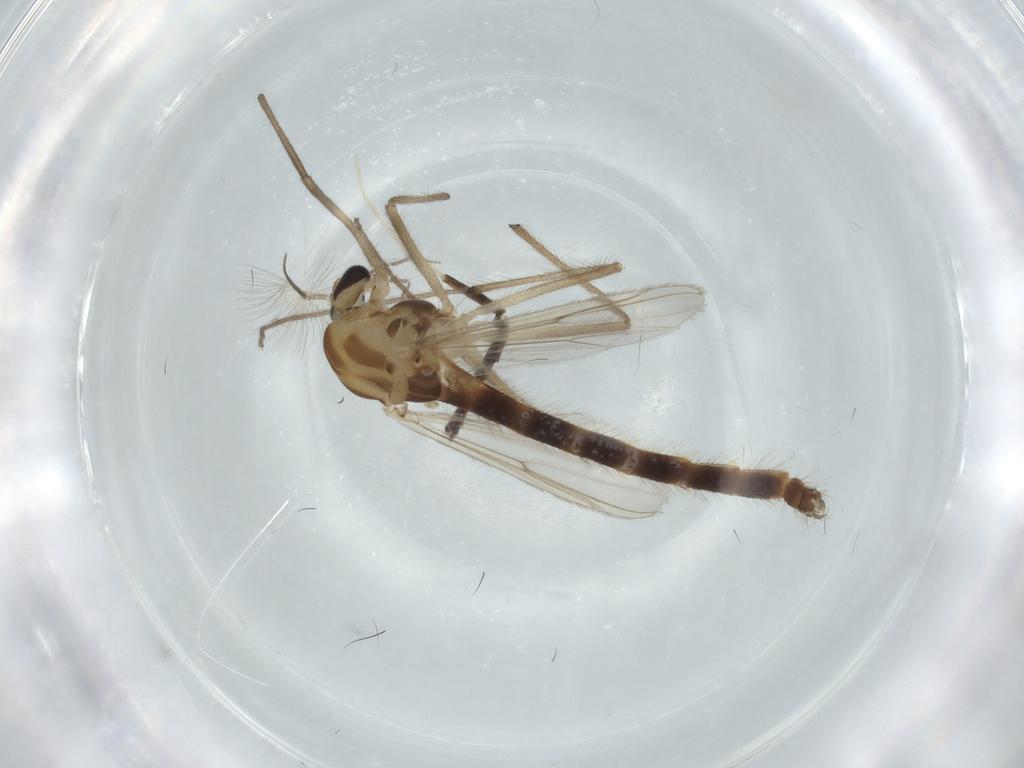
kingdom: Animalia
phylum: Arthropoda
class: Insecta
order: Diptera
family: Chironomidae
